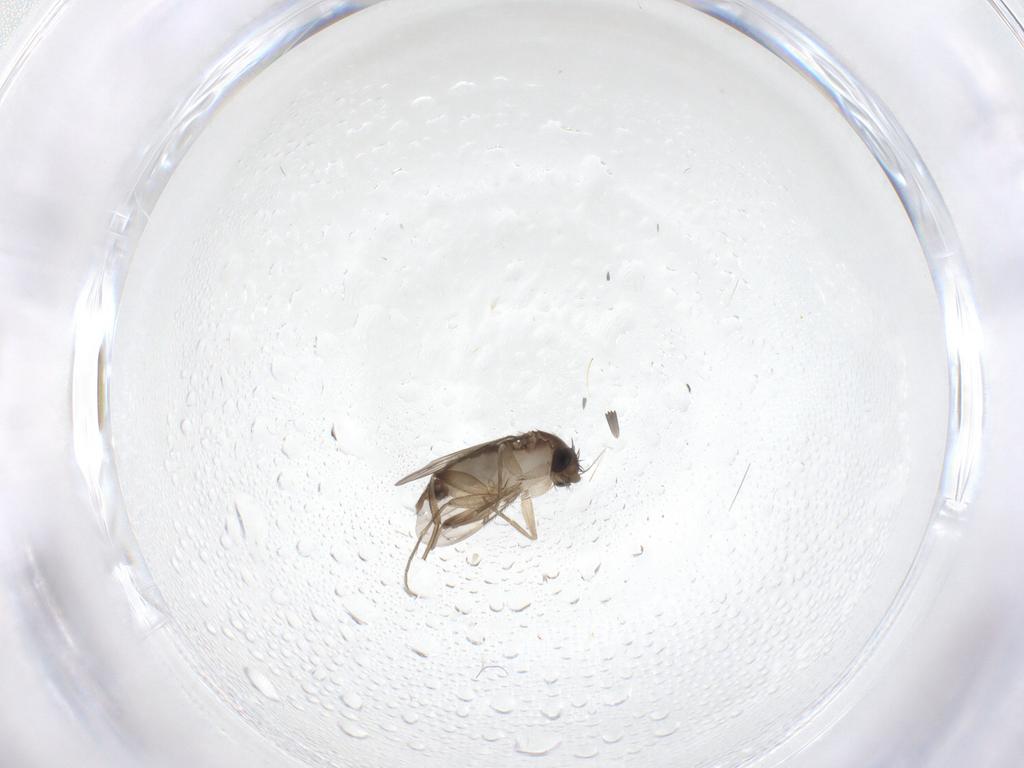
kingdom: Animalia
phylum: Arthropoda
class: Insecta
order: Diptera
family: Phoridae
